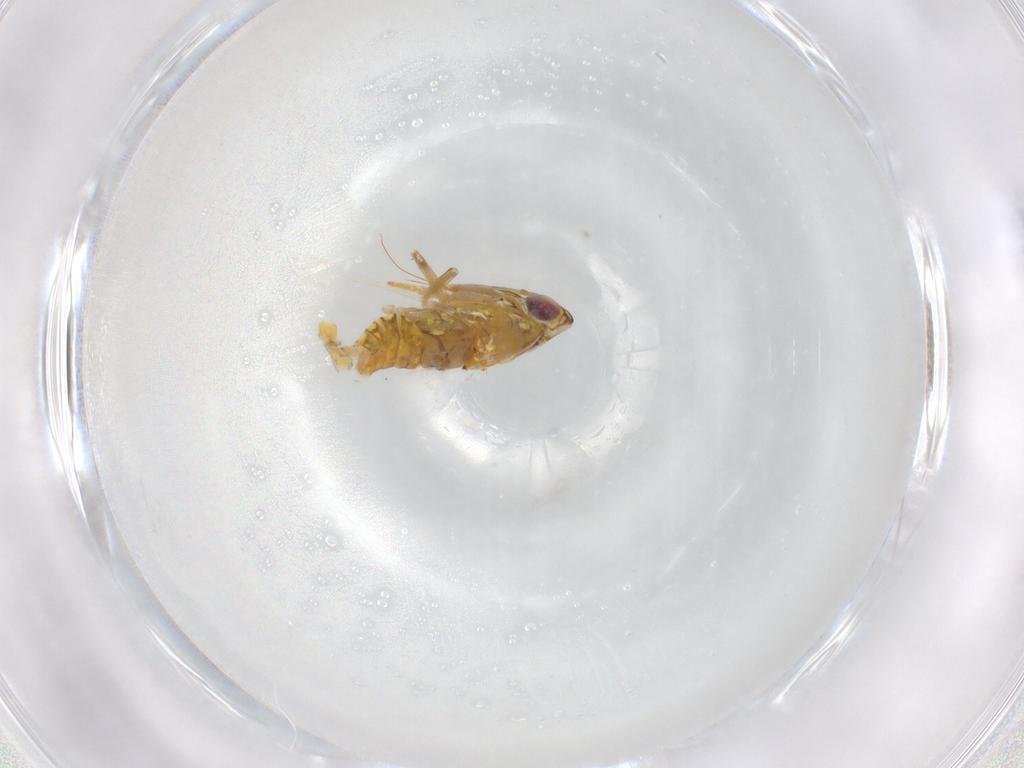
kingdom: Animalia
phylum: Arthropoda
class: Insecta
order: Hemiptera
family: Cicadellidae
